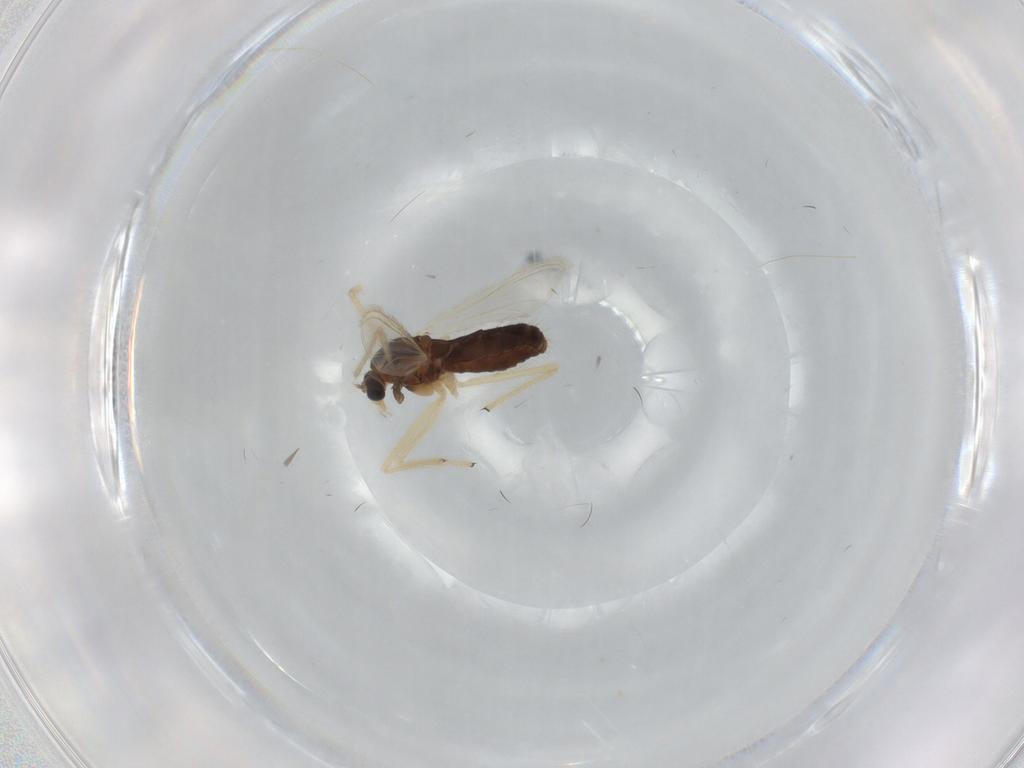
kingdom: Animalia
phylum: Arthropoda
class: Insecta
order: Diptera
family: Chironomidae
